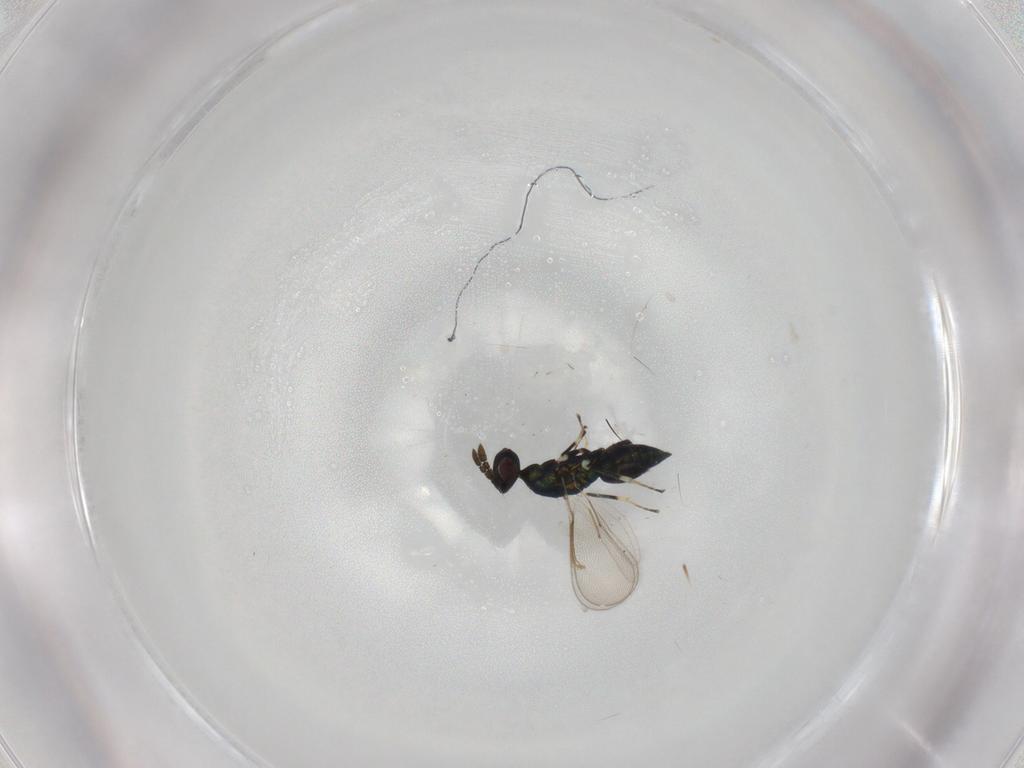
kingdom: Animalia
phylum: Arthropoda
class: Insecta
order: Hymenoptera
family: Eulophidae
